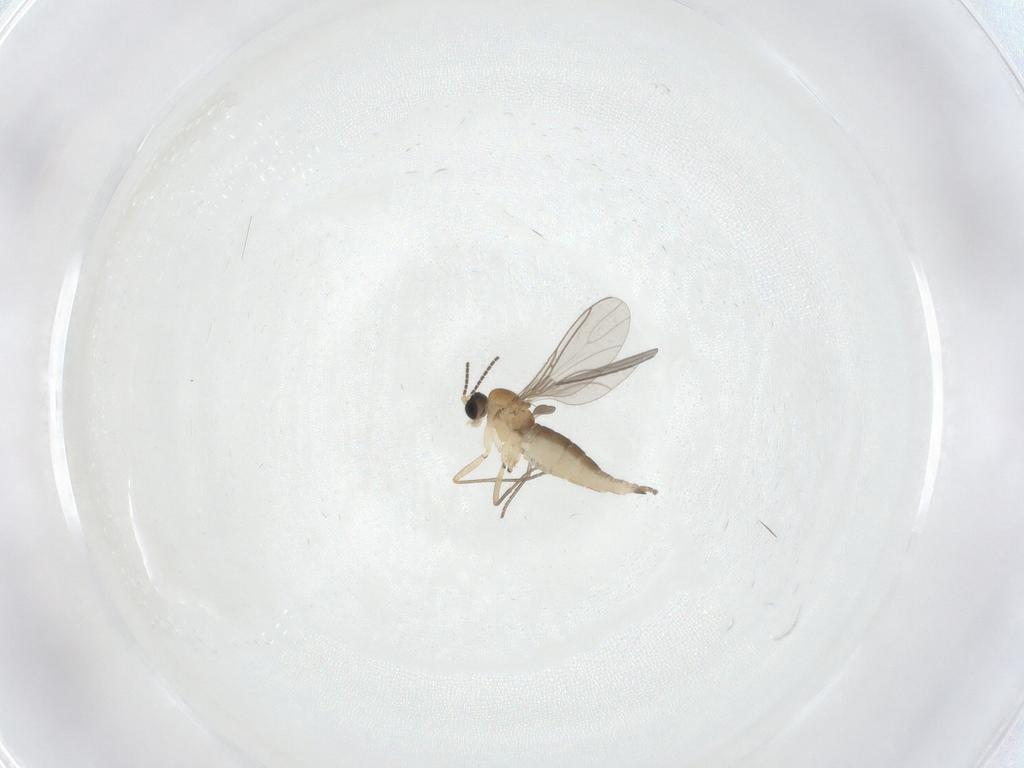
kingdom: Animalia
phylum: Arthropoda
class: Insecta
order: Diptera
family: Sciaridae
